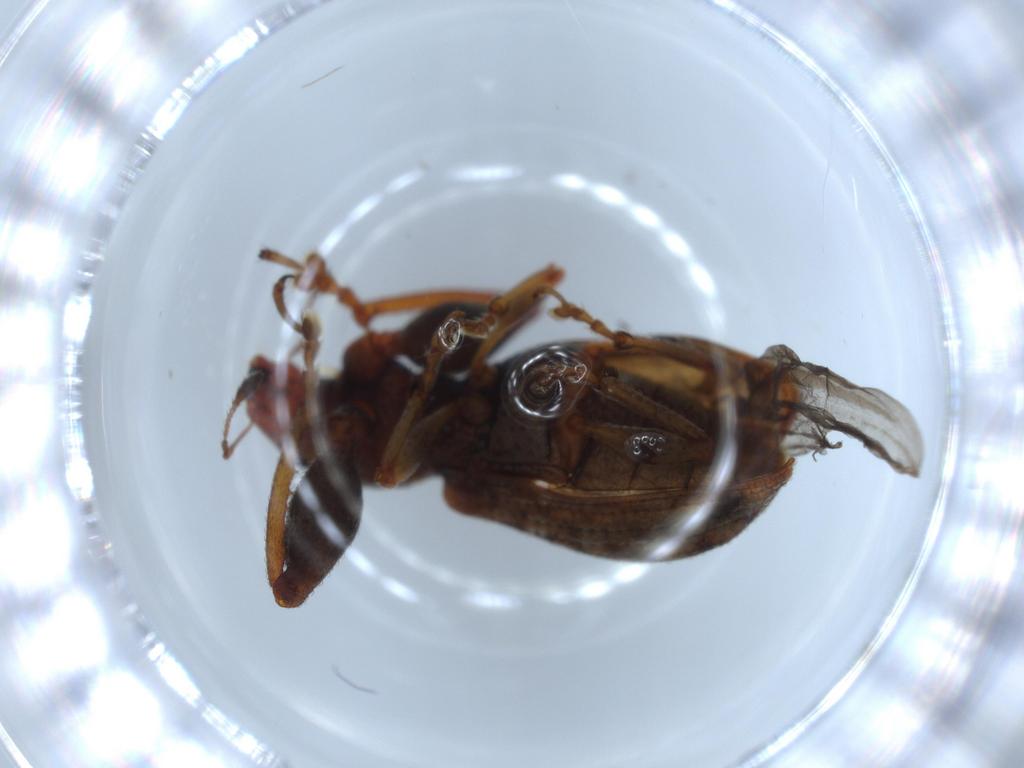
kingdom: Animalia
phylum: Arthropoda
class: Insecta
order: Coleoptera
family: Curculionidae
